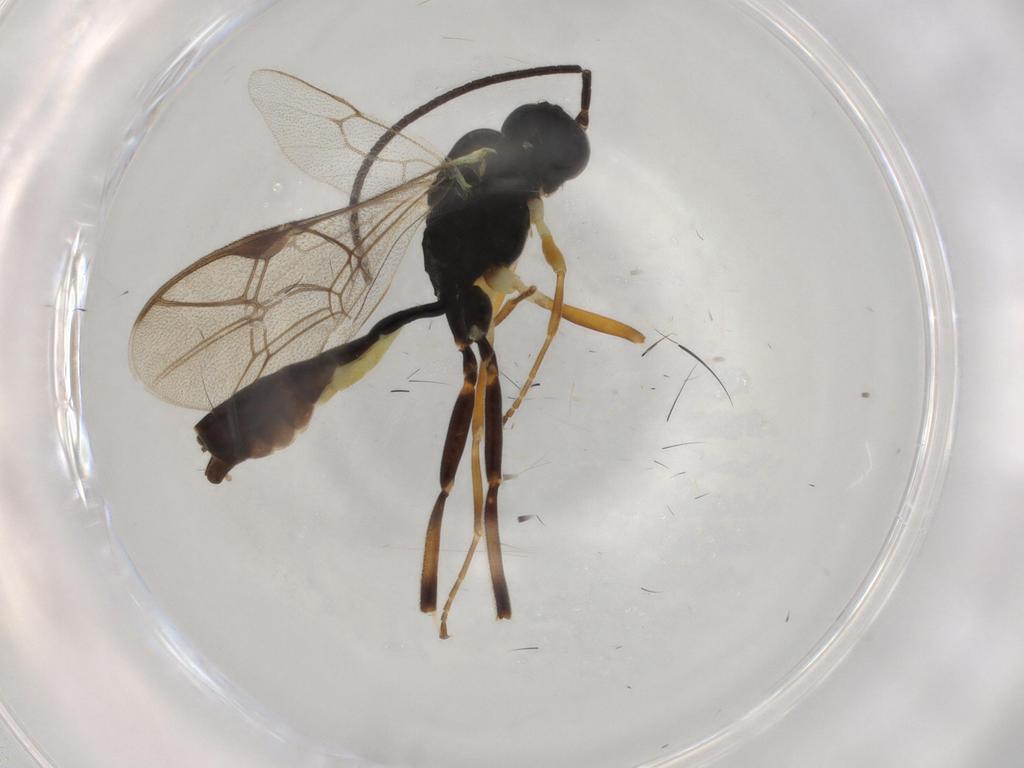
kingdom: Animalia
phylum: Arthropoda
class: Insecta
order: Hymenoptera
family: Ichneumonidae
